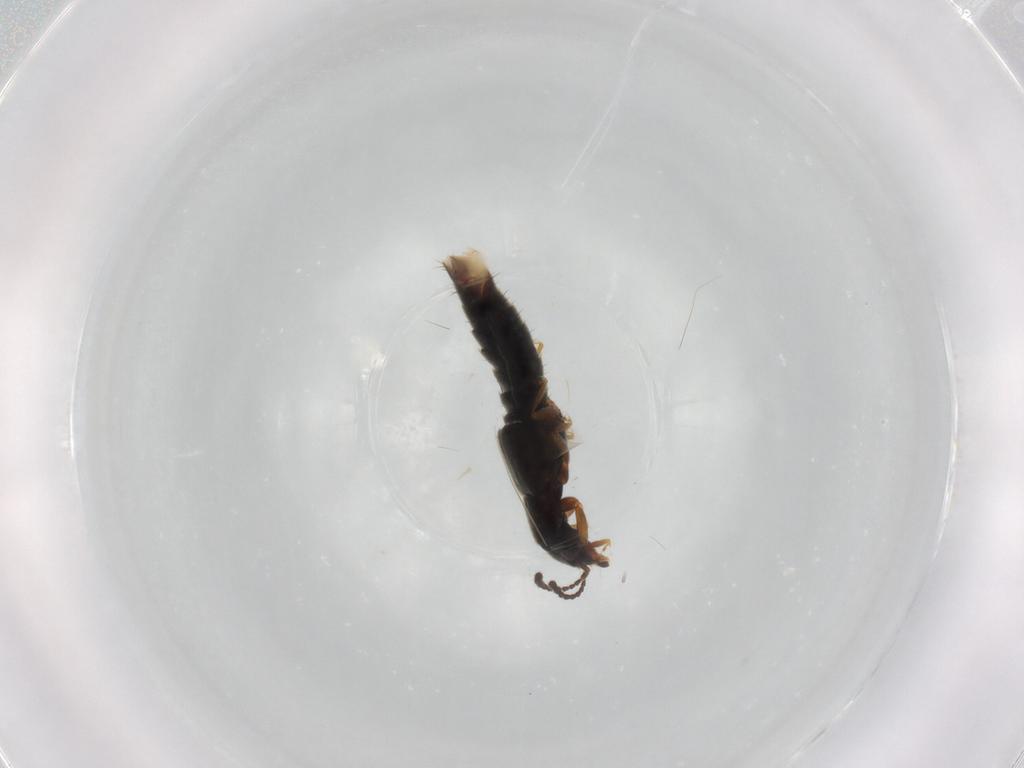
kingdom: Animalia
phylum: Arthropoda
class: Insecta
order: Coleoptera
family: Staphylinidae
